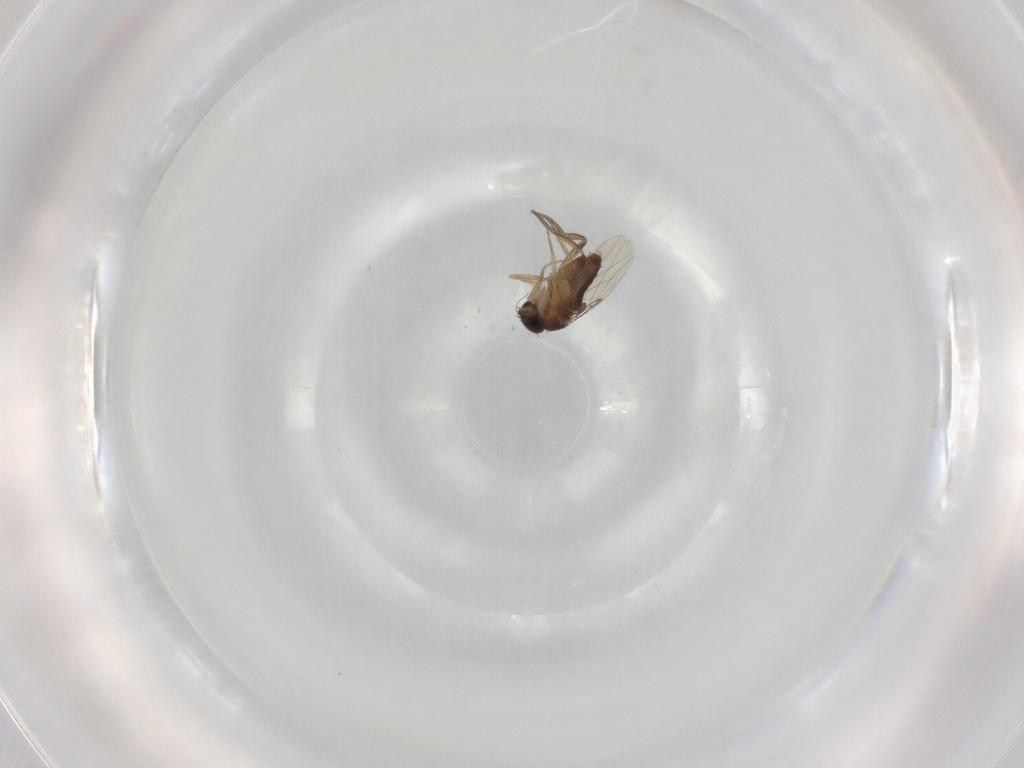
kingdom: Animalia
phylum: Arthropoda
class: Insecta
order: Diptera
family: Phoridae
